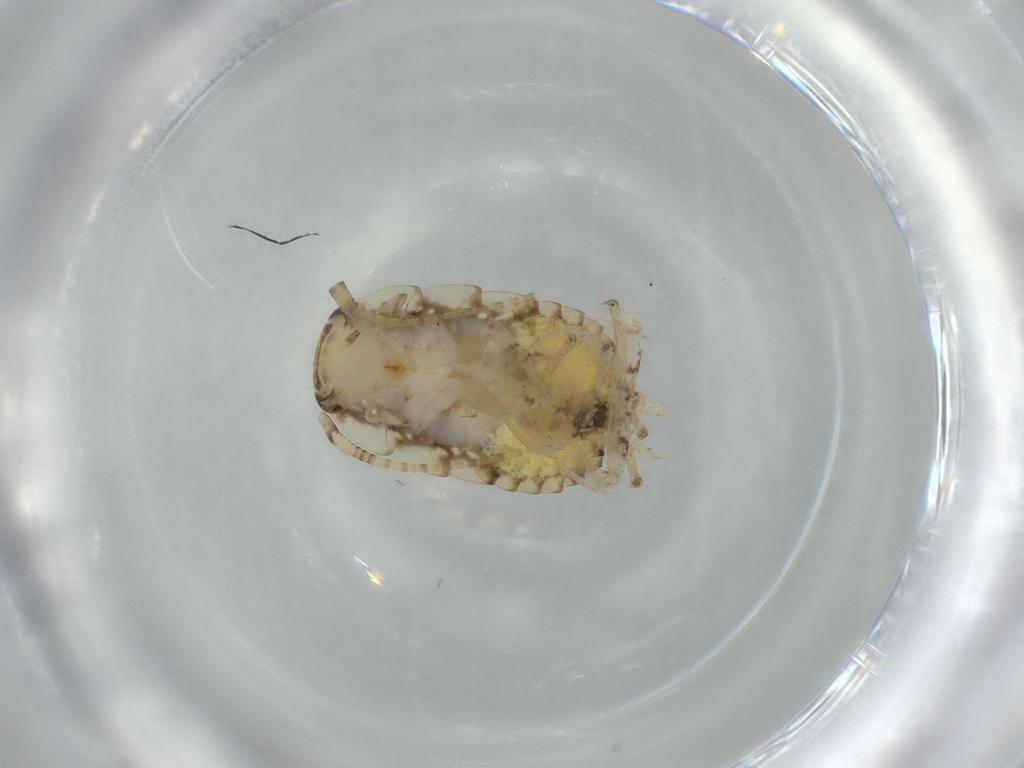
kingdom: Animalia
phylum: Arthropoda
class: Insecta
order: Blattodea
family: Ectobiidae
